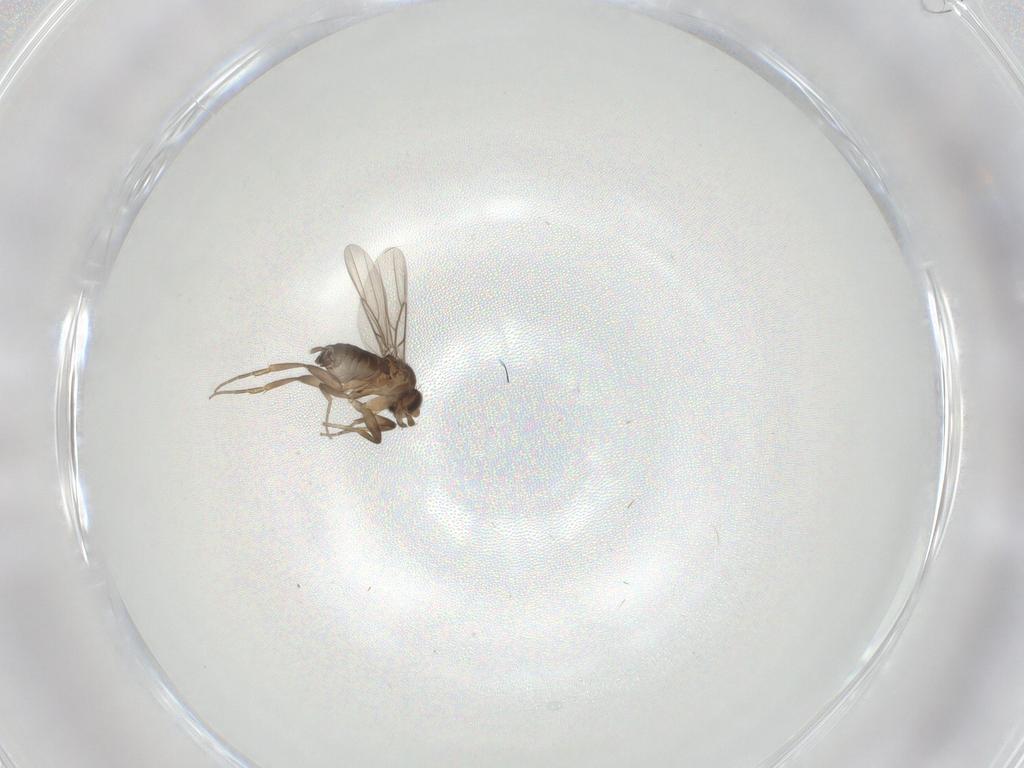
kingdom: Animalia
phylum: Arthropoda
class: Insecta
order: Diptera
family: Phoridae
